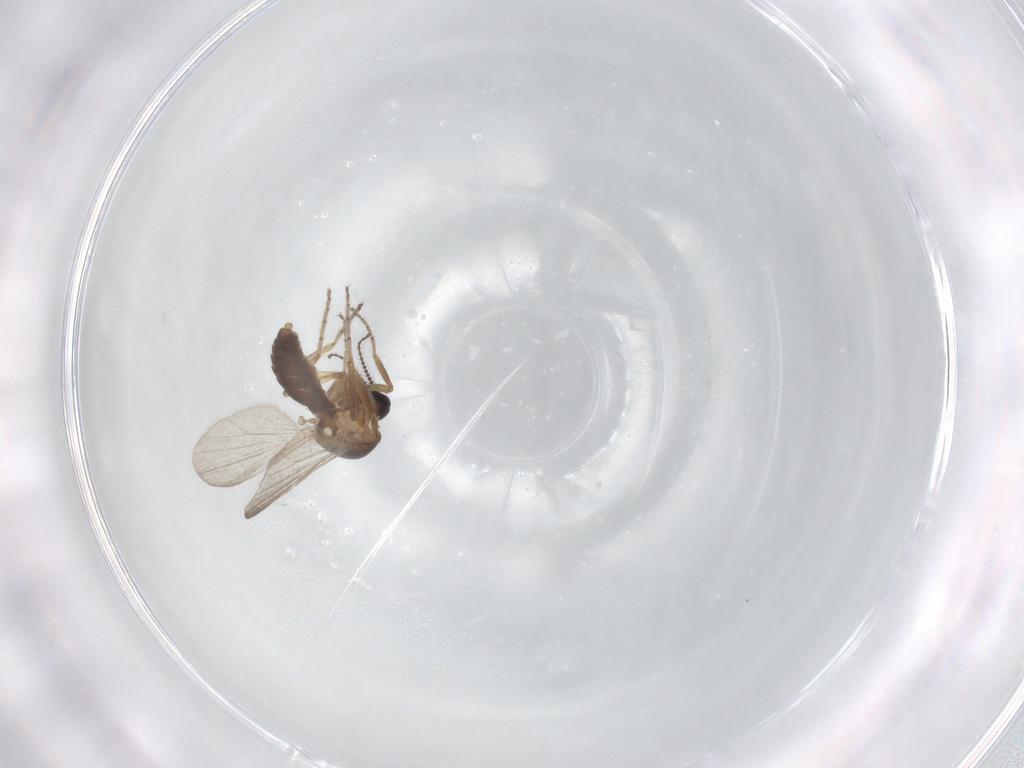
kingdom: Animalia
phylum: Arthropoda
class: Insecta
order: Diptera
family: Ceratopogonidae
